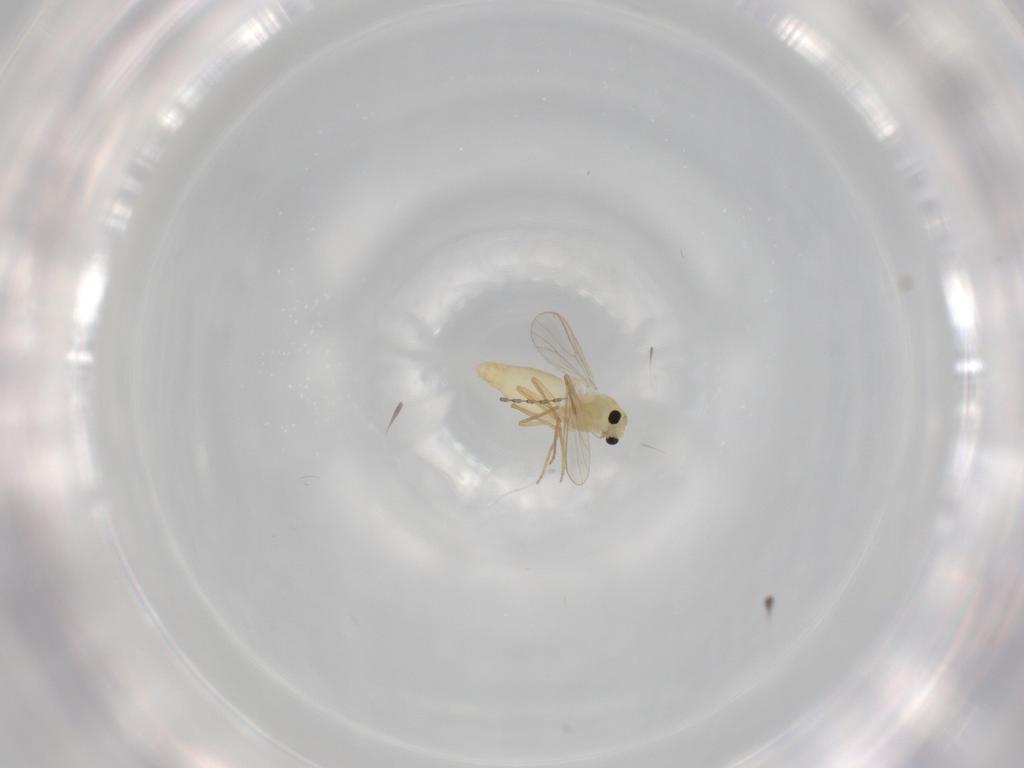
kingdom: Animalia
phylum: Arthropoda
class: Insecta
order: Diptera
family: Sphaeroceridae
